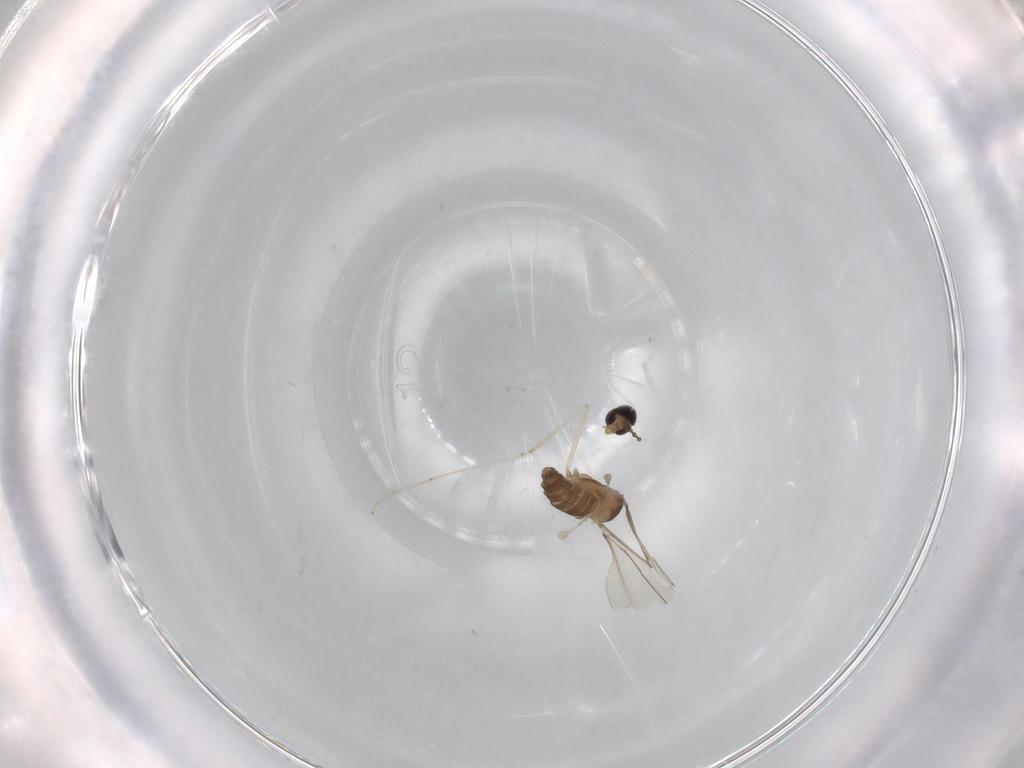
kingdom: Animalia
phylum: Arthropoda
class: Insecta
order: Diptera
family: Cecidomyiidae
